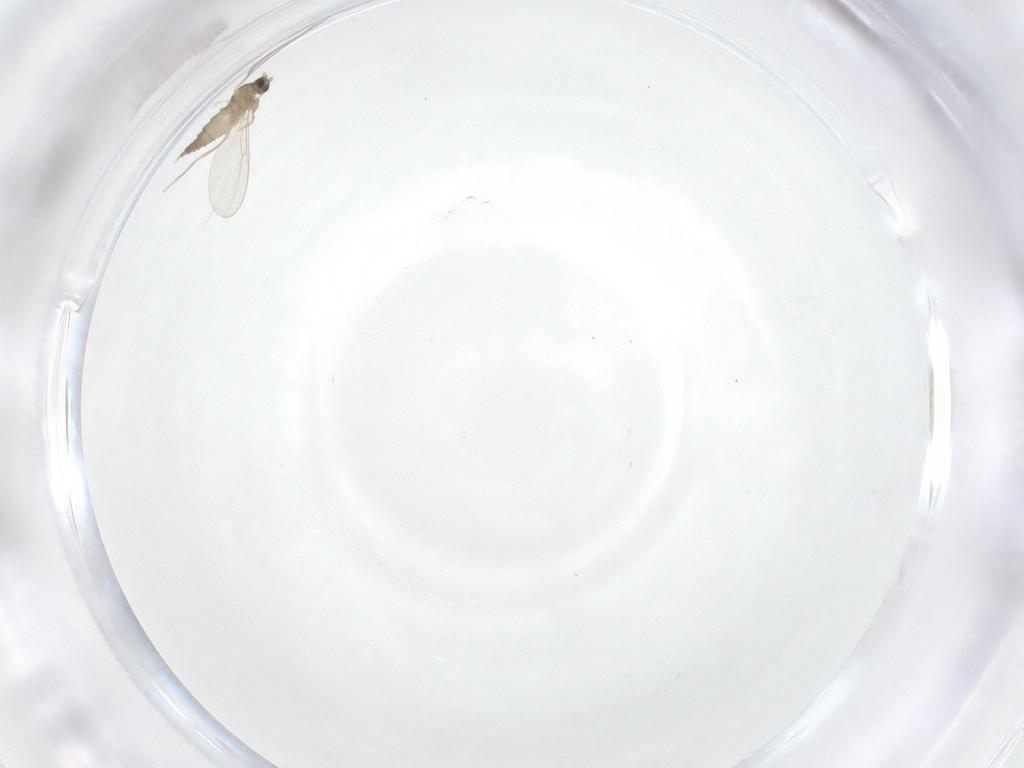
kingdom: Animalia
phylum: Arthropoda
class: Insecta
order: Diptera
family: Cecidomyiidae
